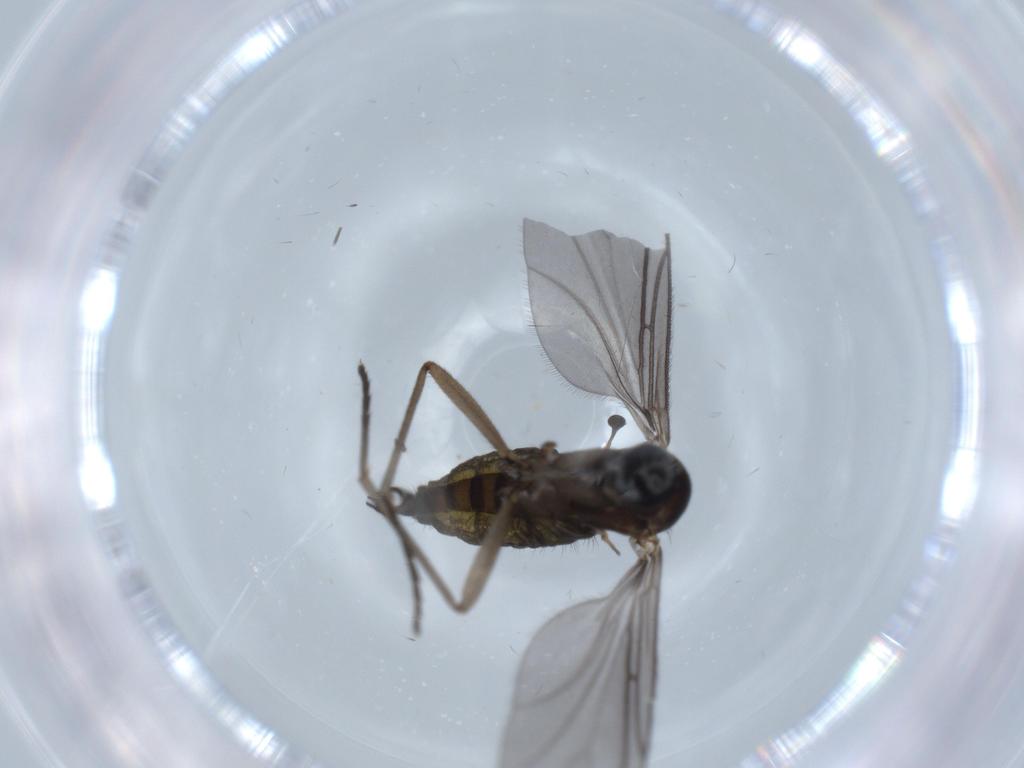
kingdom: Animalia
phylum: Arthropoda
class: Insecta
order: Diptera
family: Sciaridae
